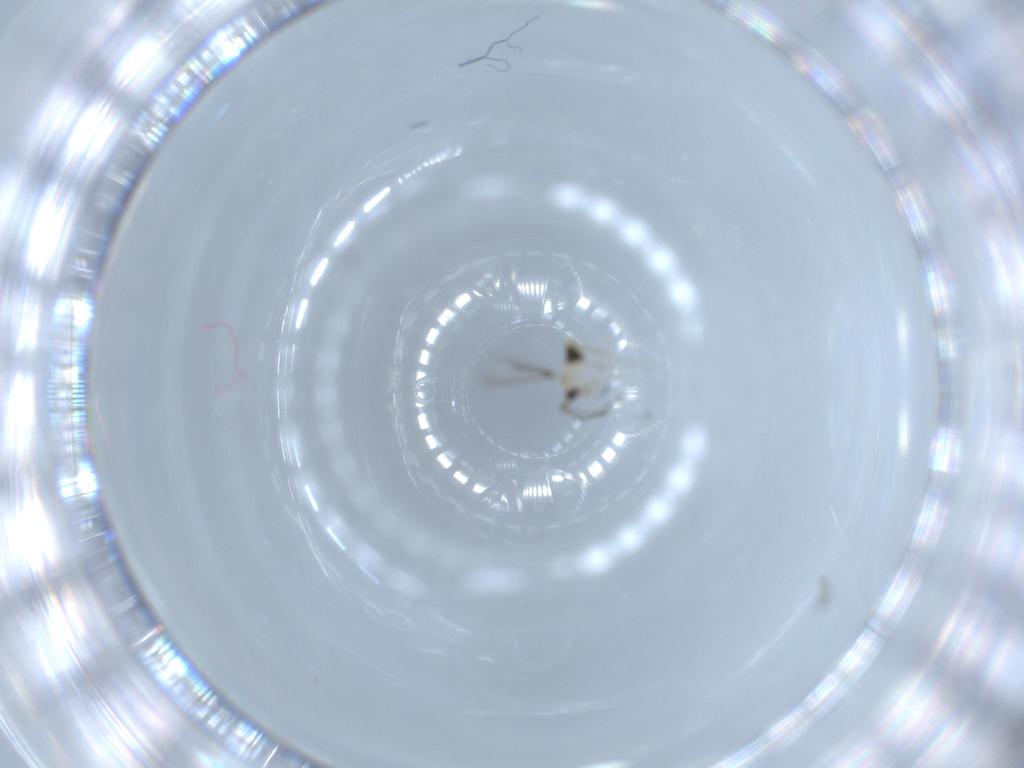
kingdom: Animalia
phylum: Arthropoda
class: Insecta
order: Hymenoptera
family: Mymaridae
